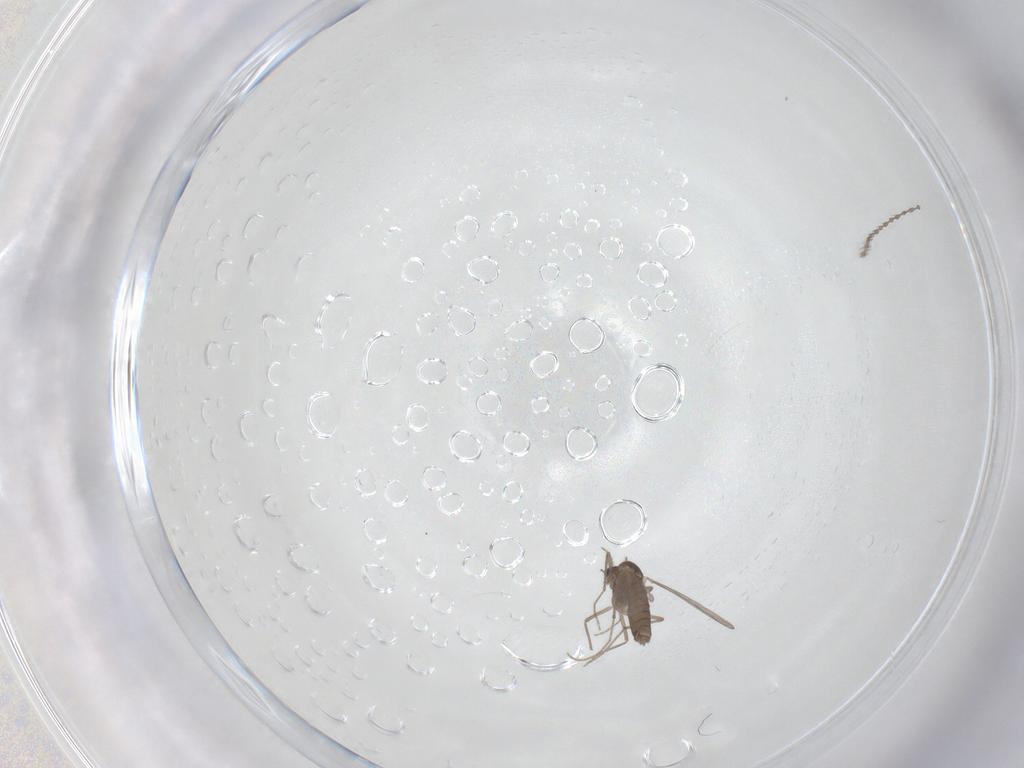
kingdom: Animalia
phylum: Arthropoda
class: Insecta
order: Diptera
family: Chironomidae
